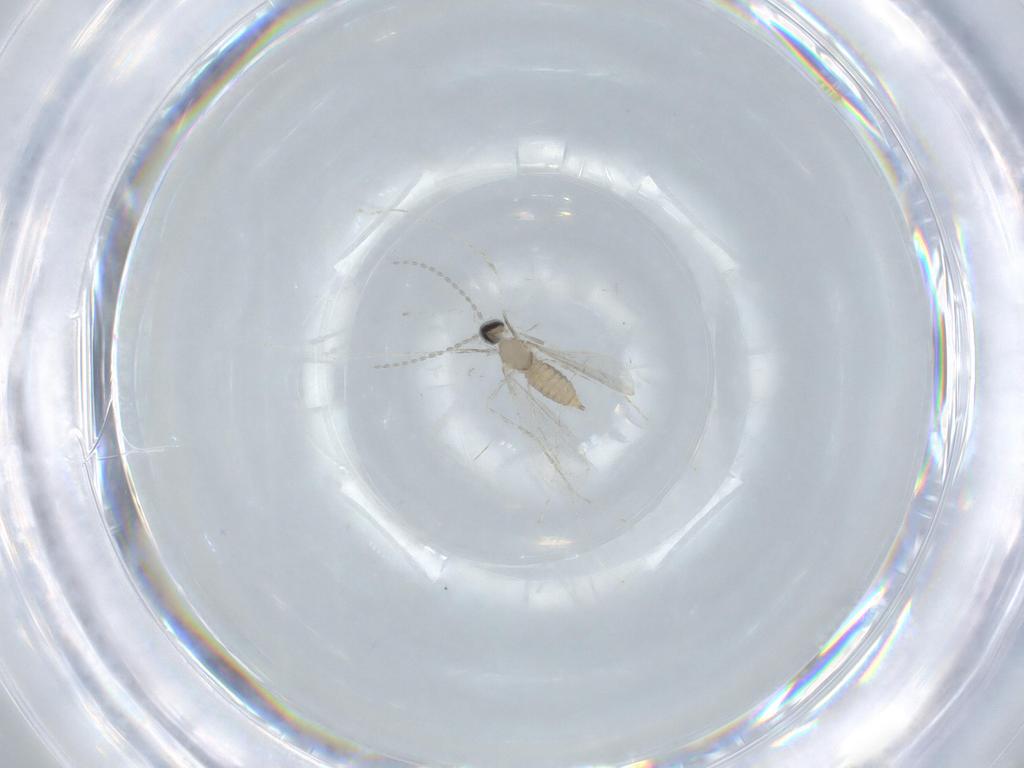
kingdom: Animalia
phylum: Arthropoda
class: Insecta
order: Diptera
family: Cecidomyiidae
